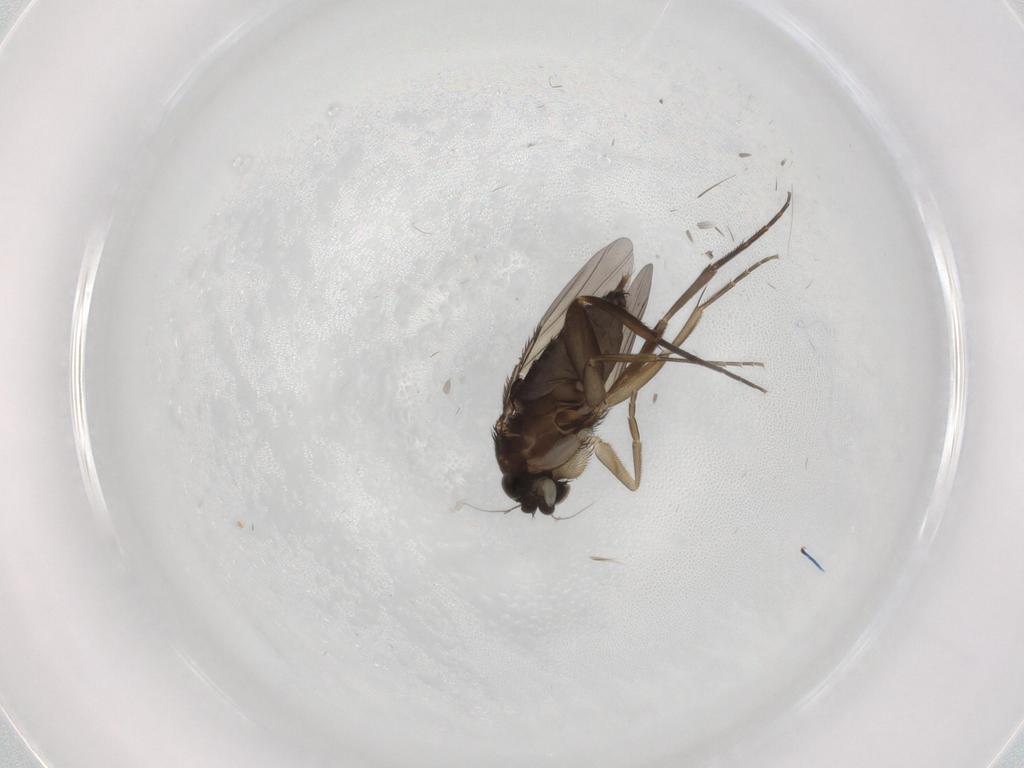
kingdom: Animalia
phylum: Arthropoda
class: Insecta
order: Diptera
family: Phoridae
